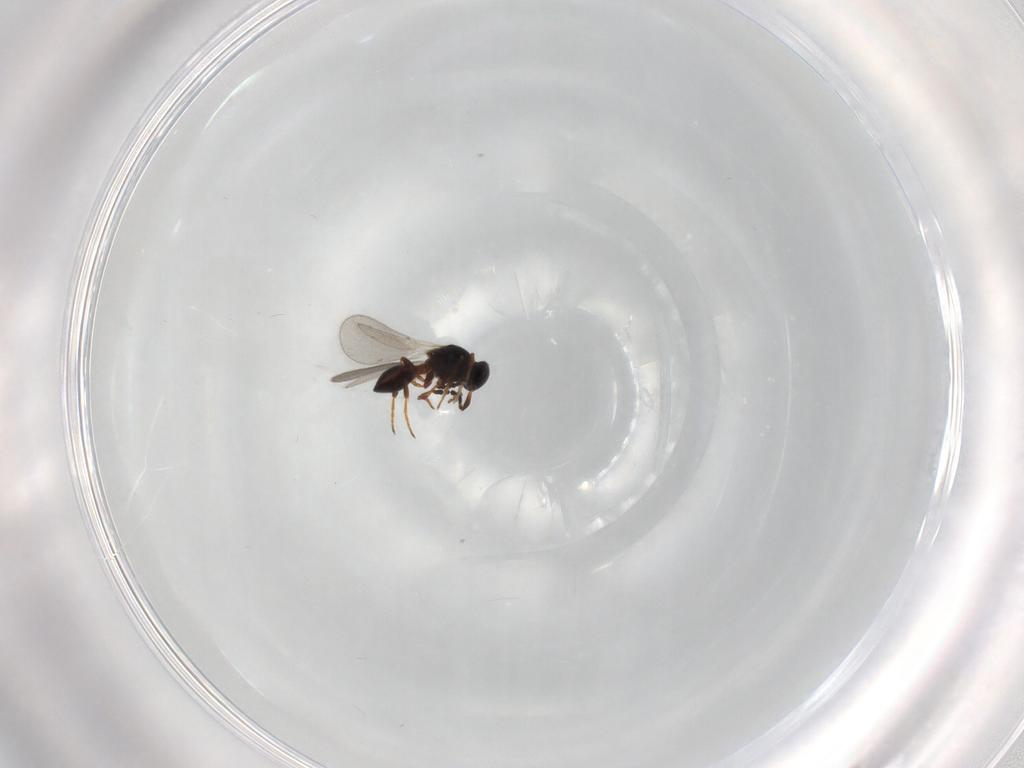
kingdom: Animalia
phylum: Arthropoda
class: Insecta
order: Hymenoptera
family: Platygastridae
